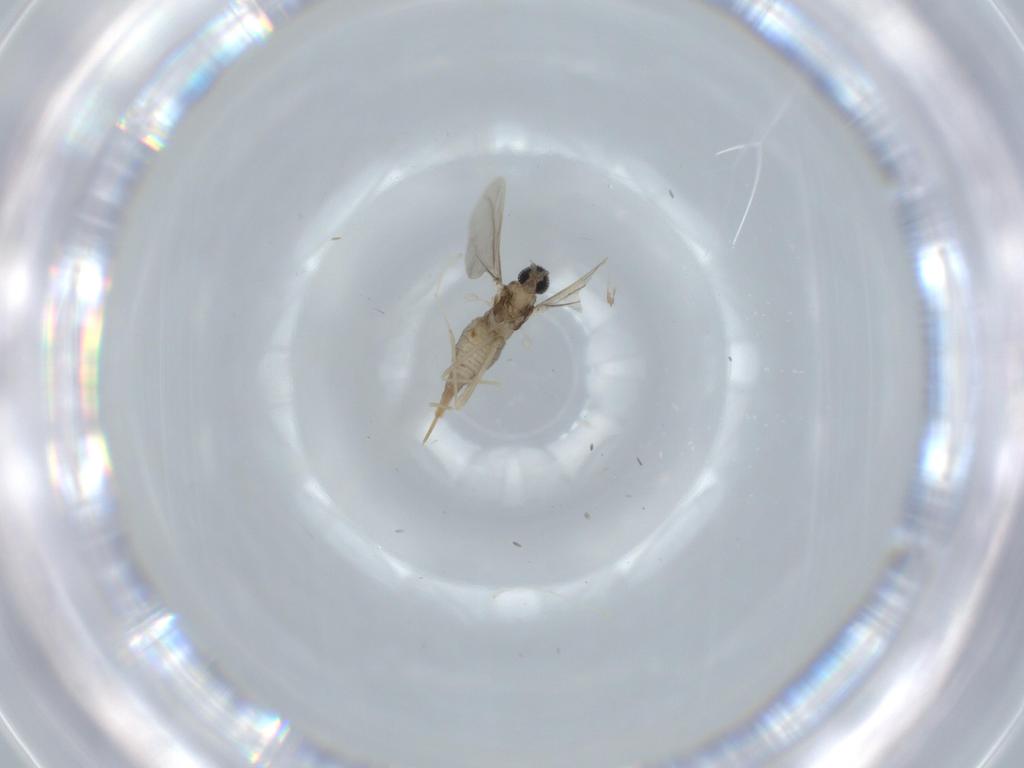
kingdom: Animalia
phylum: Arthropoda
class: Insecta
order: Diptera
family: Cecidomyiidae
